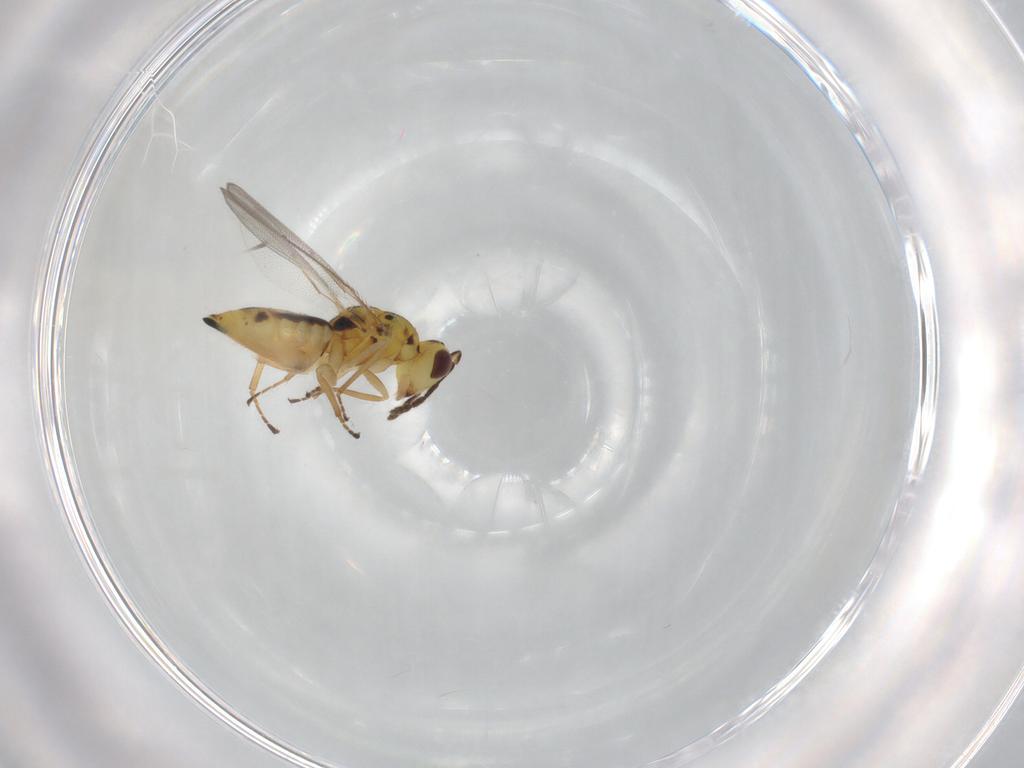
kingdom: Animalia
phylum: Arthropoda
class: Insecta
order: Hymenoptera
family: Eulophidae
